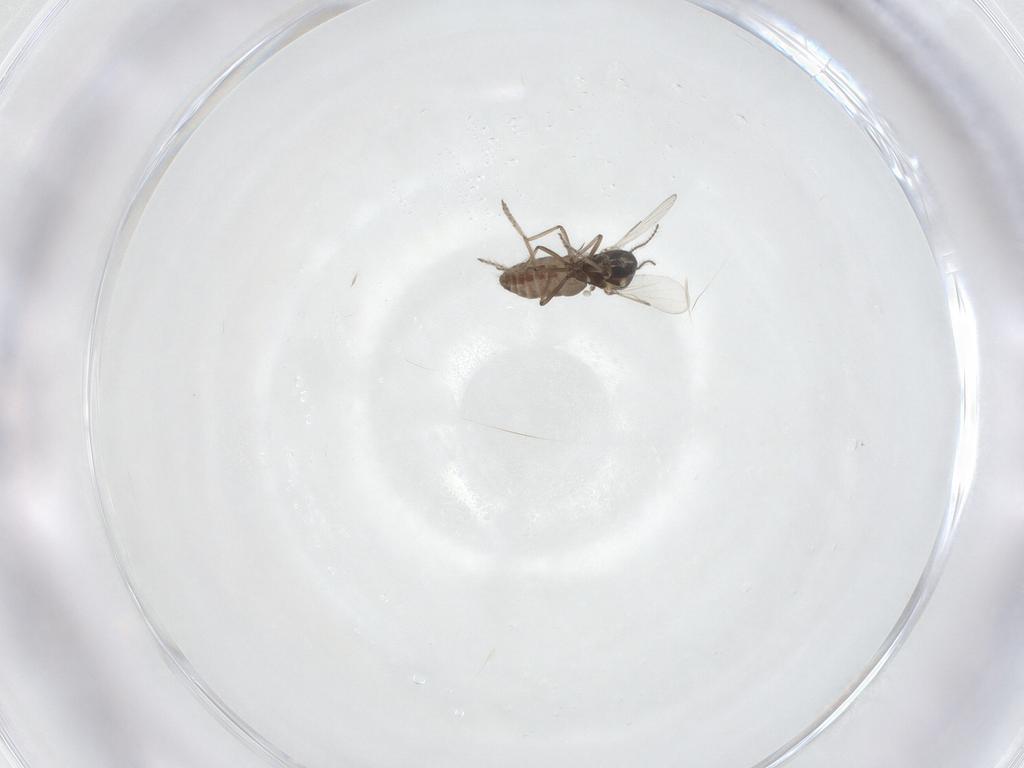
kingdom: Animalia
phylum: Arthropoda
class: Insecta
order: Diptera
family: Ceratopogonidae
